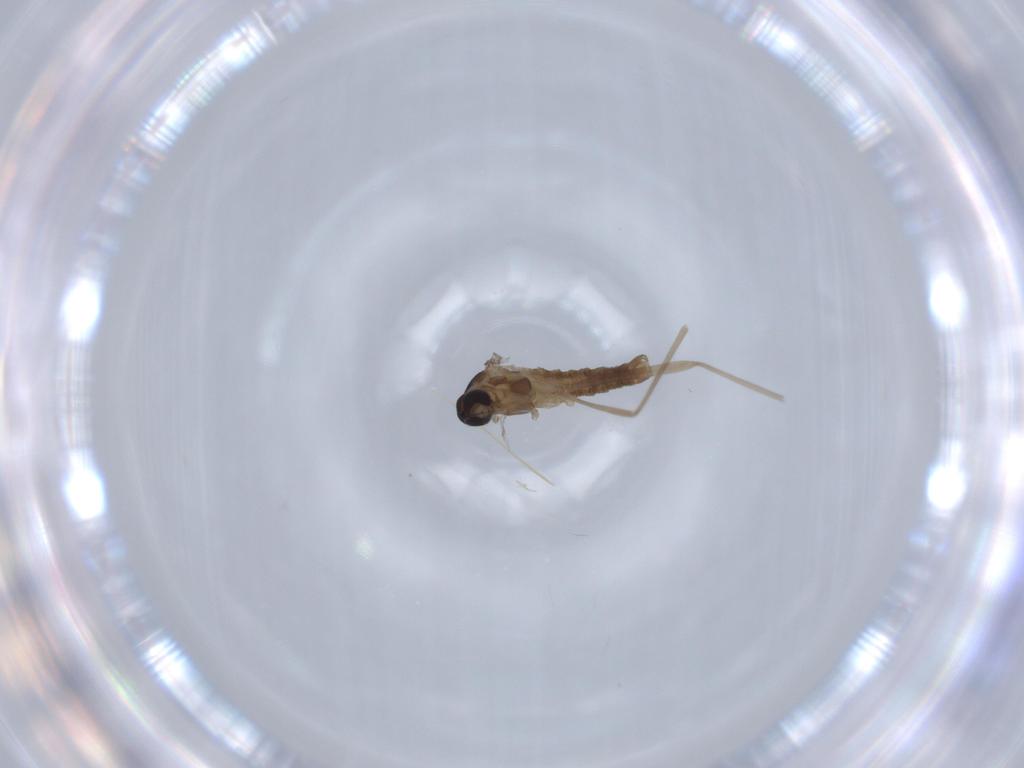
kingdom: Animalia
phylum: Arthropoda
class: Insecta
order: Diptera
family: Cecidomyiidae
